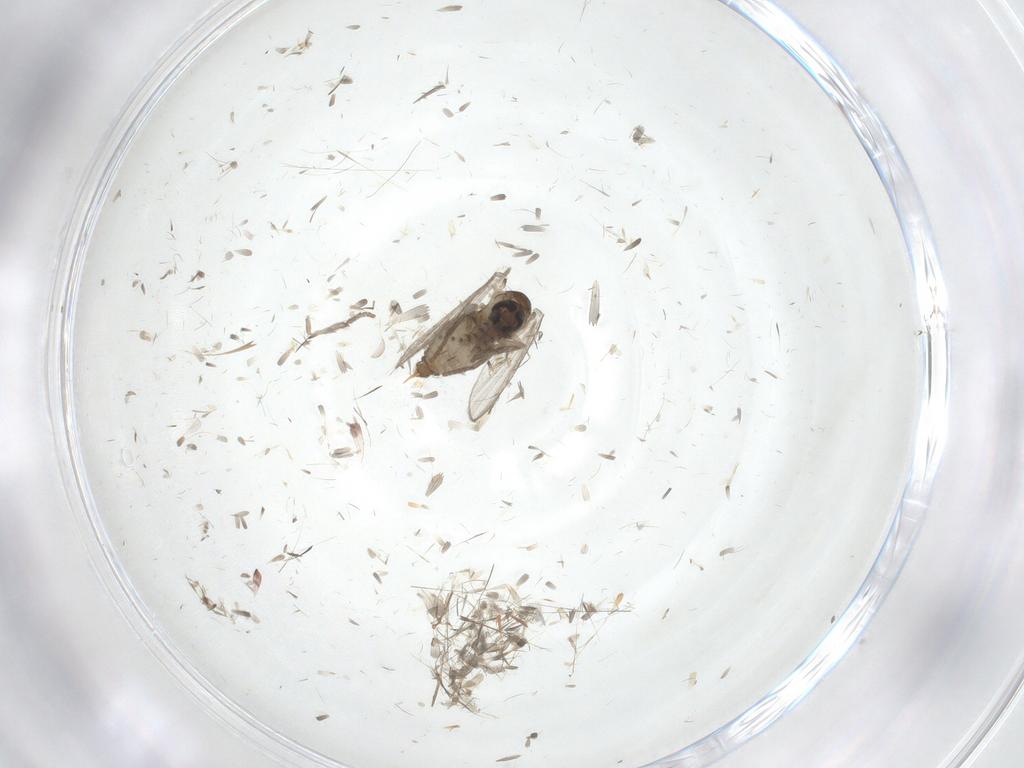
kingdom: Animalia
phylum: Arthropoda
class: Insecta
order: Diptera
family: Psychodidae
